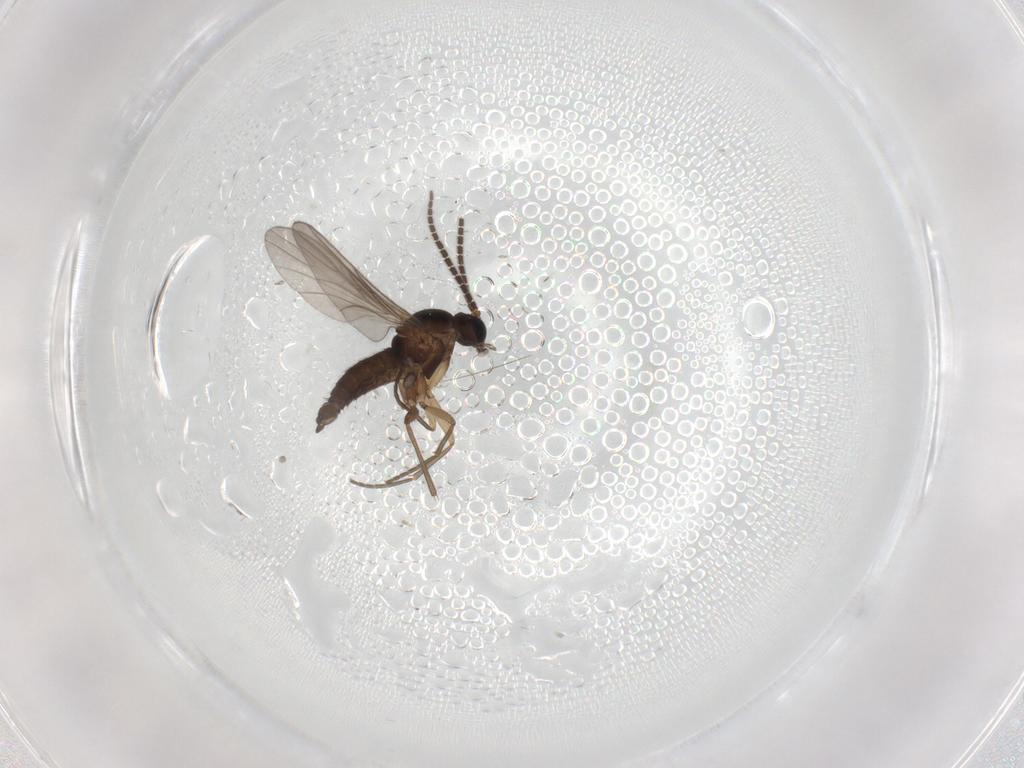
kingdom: Animalia
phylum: Arthropoda
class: Insecta
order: Diptera
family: Sciaridae
